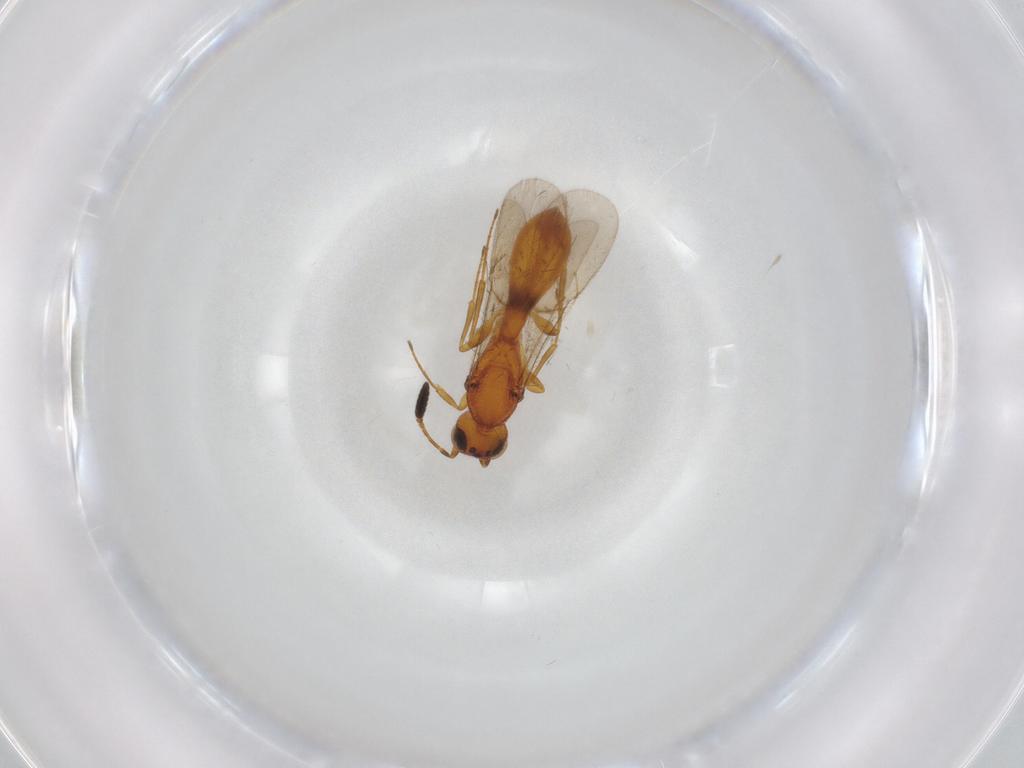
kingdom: Animalia
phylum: Arthropoda
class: Insecta
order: Hymenoptera
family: Scelionidae
